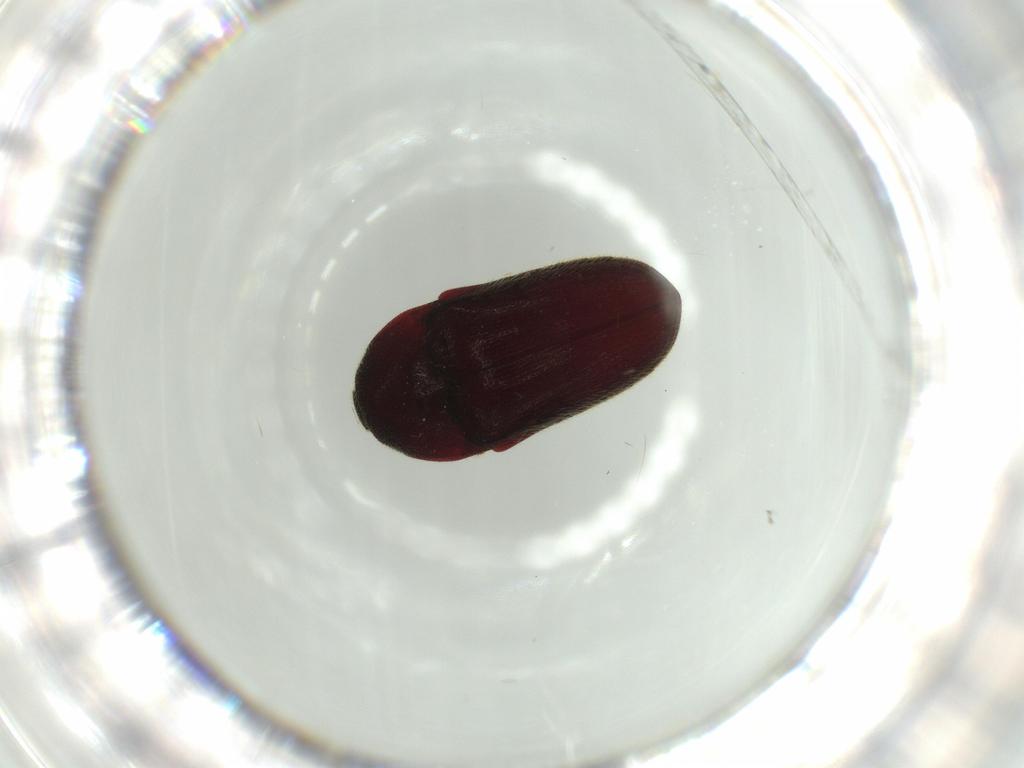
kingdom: Animalia
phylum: Arthropoda
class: Insecta
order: Coleoptera
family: Throscidae
